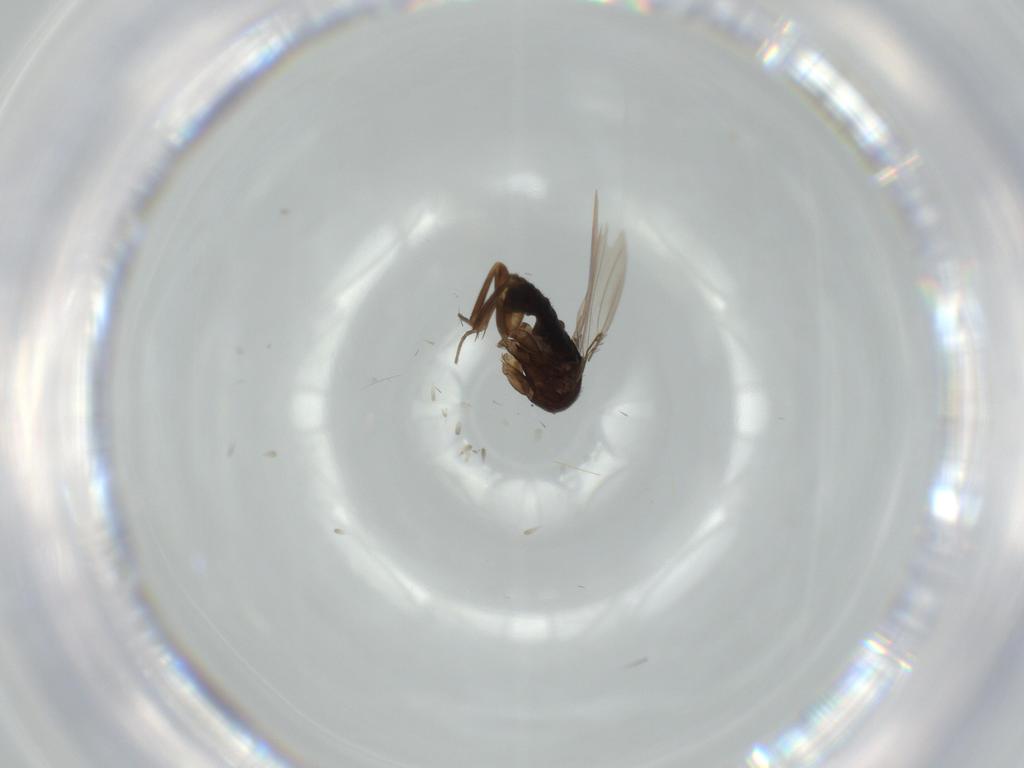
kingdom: Animalia
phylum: Arthropoda
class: Insecta
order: Diptera
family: Phoridae
